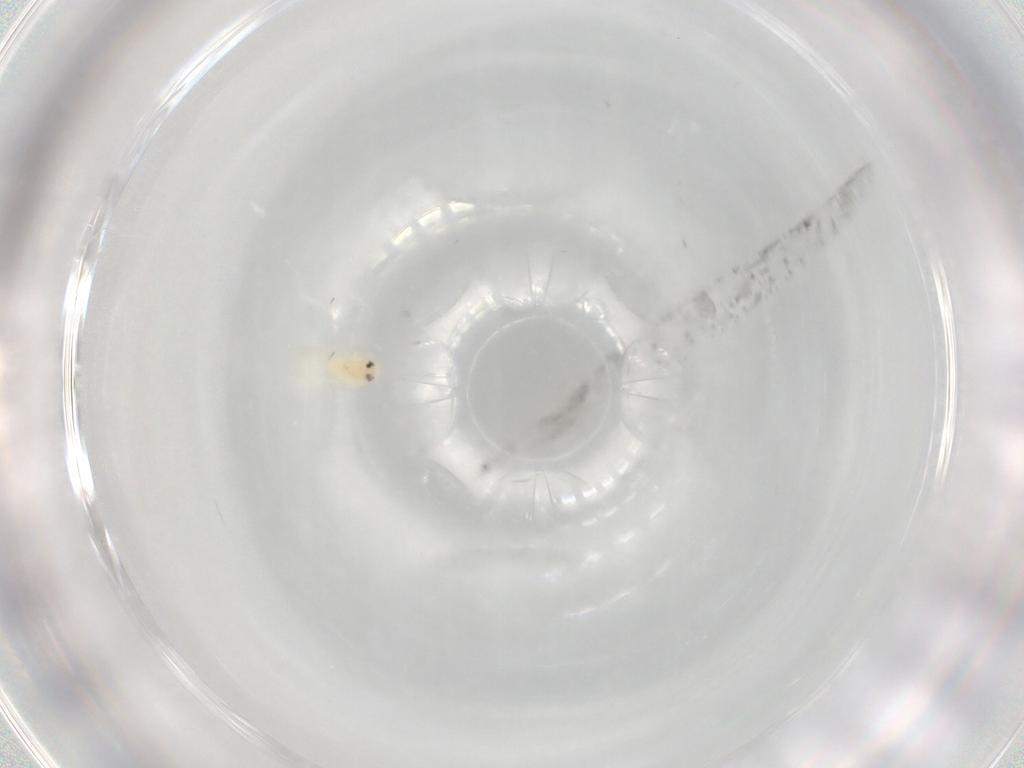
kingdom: Animalia
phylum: Arthropoda
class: Insecta
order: Hemiptera
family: Aleyrodidae
